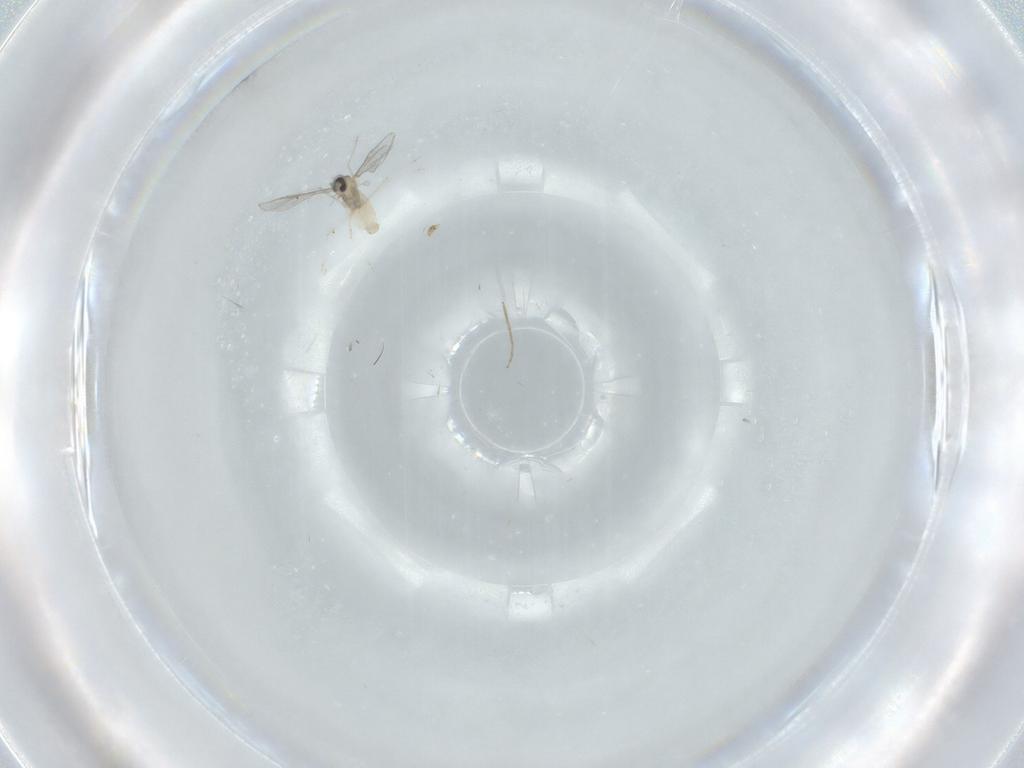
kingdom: Animalia
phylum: Arthropoda
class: Insecta
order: Diptera
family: Cecidomyiidae
